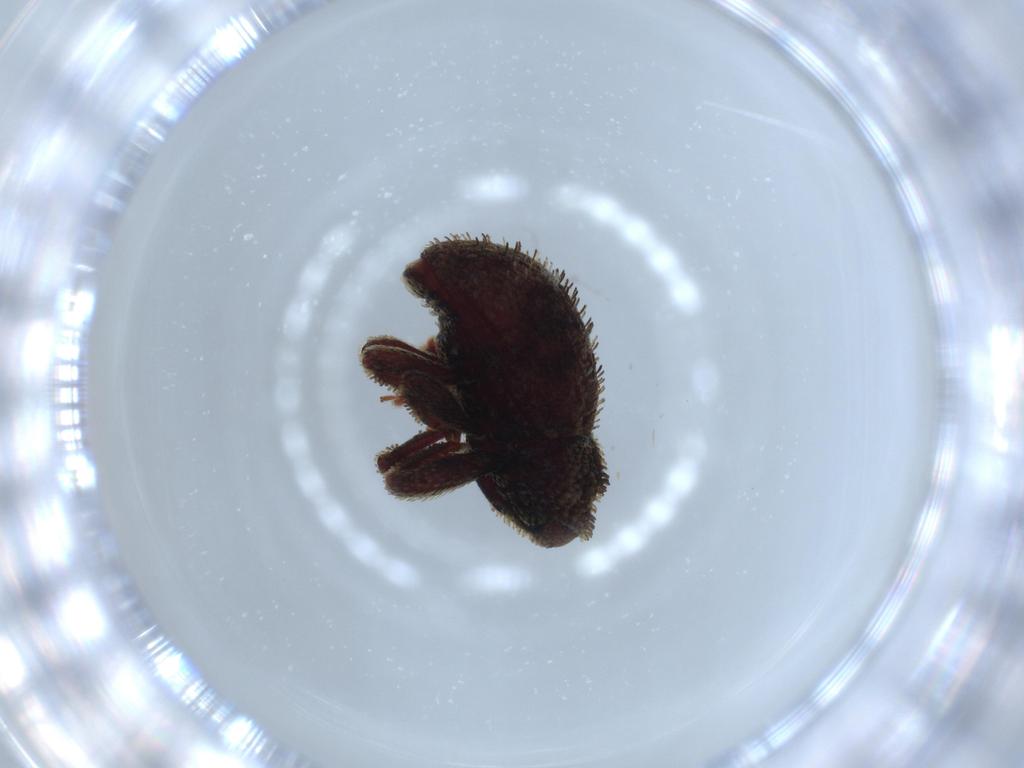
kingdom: Animalia
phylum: Arthropoda
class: Insecta
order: Coleoptera
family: Curculionidae
